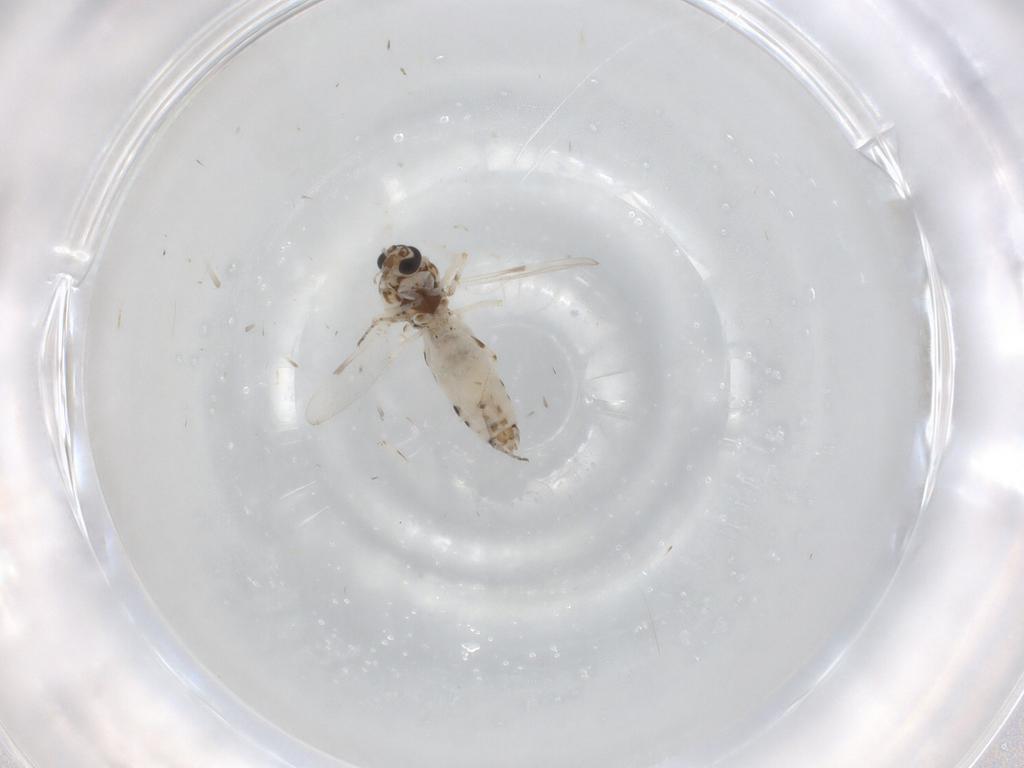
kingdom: Animalia
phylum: Arthropoda
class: Insecta
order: Diptera
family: Ceratopogonidae
